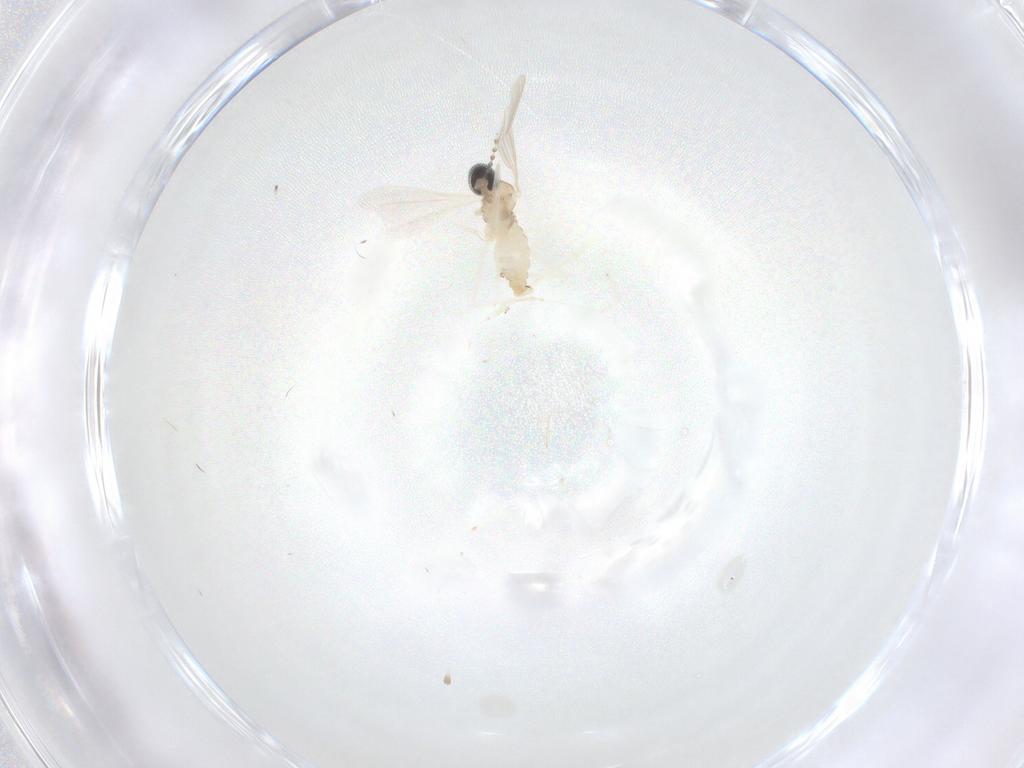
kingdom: Animalia
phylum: Arthropoda
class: Insecta
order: Diptera
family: Cecidomyiidae
